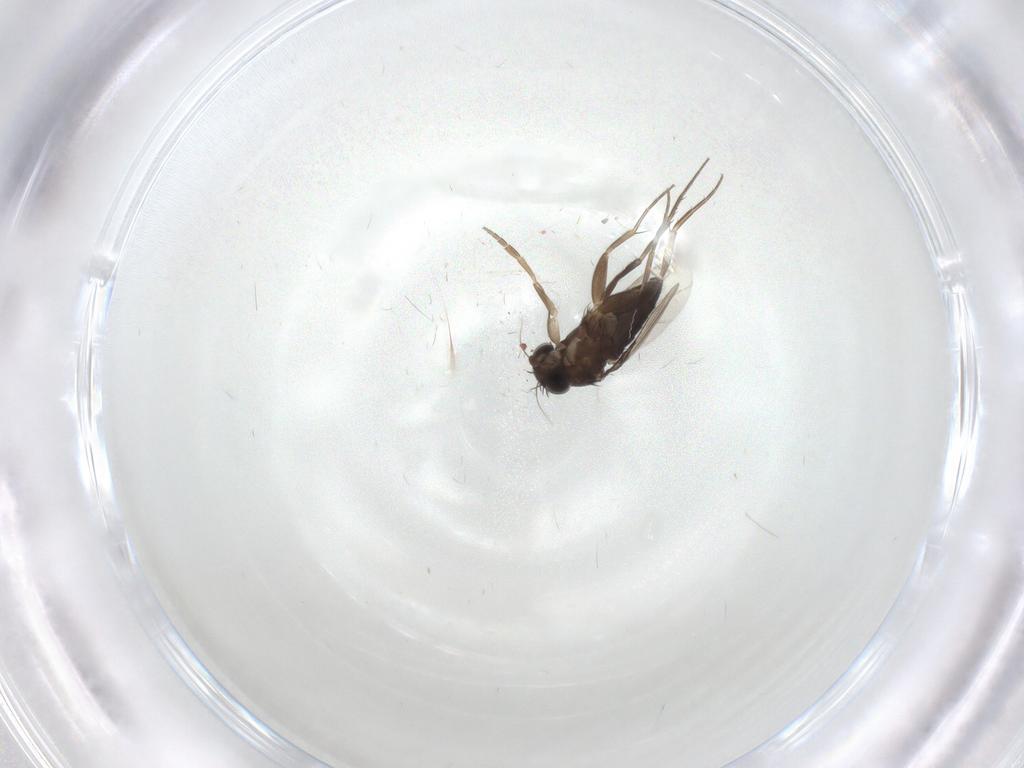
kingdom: Animalia
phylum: Arthropoda
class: Insecta
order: Diptera
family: Phoridae
